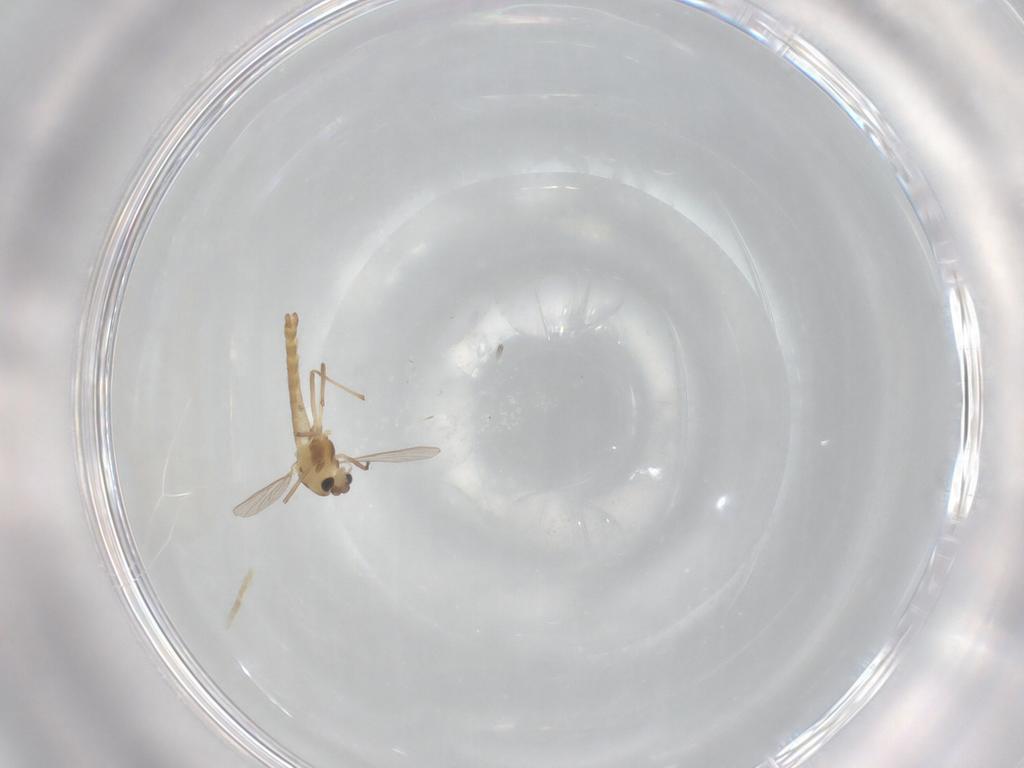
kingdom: Animalia
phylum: Arthropoda
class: Insecta
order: Diptera
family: Chironomidae
